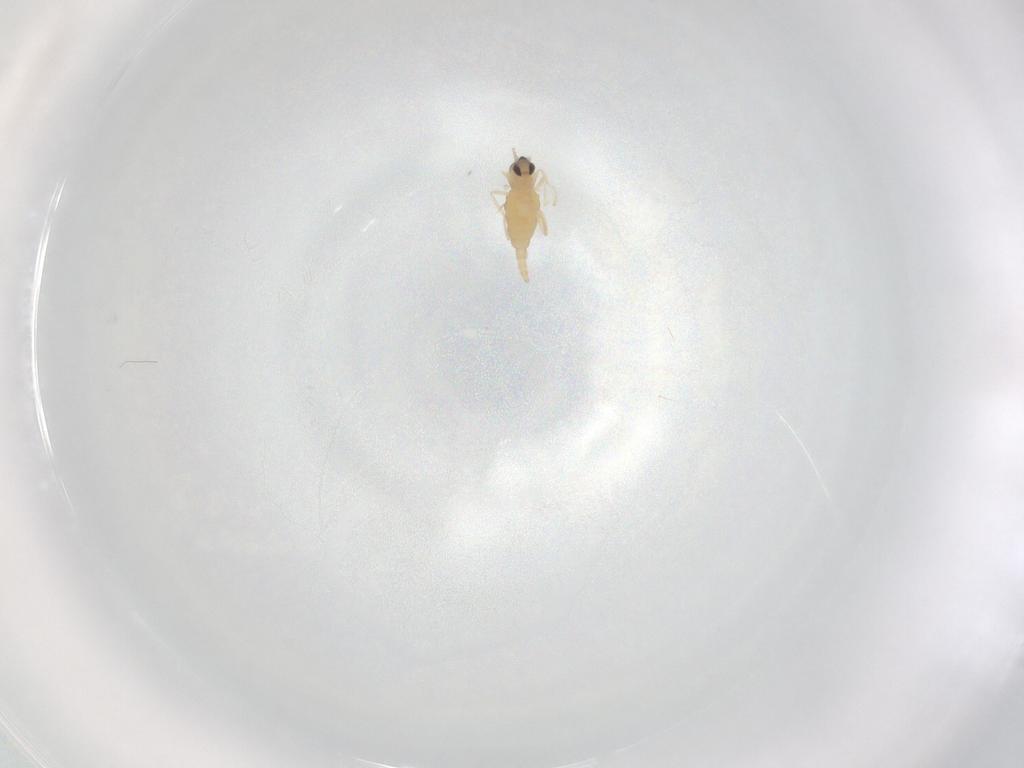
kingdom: Animalia
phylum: Arthropoda
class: Insecta
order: Diptera
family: Cecidomyiidae
